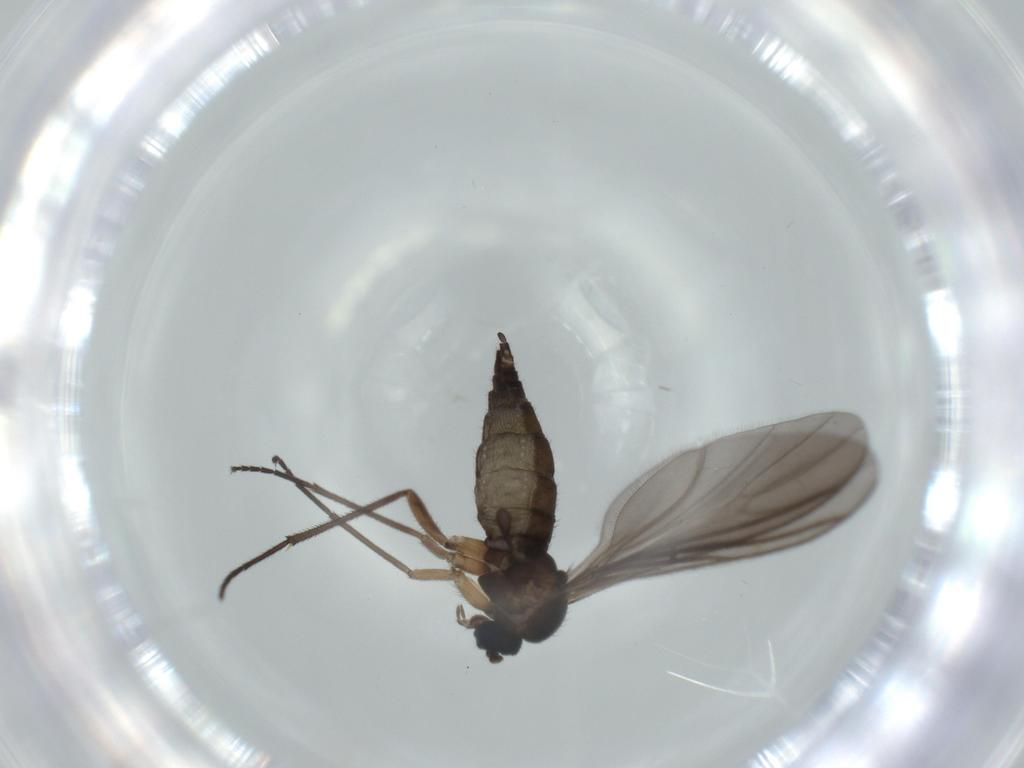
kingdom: Animalia
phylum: Arthropoda
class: Insecta
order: Diptera
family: Sciaridae
